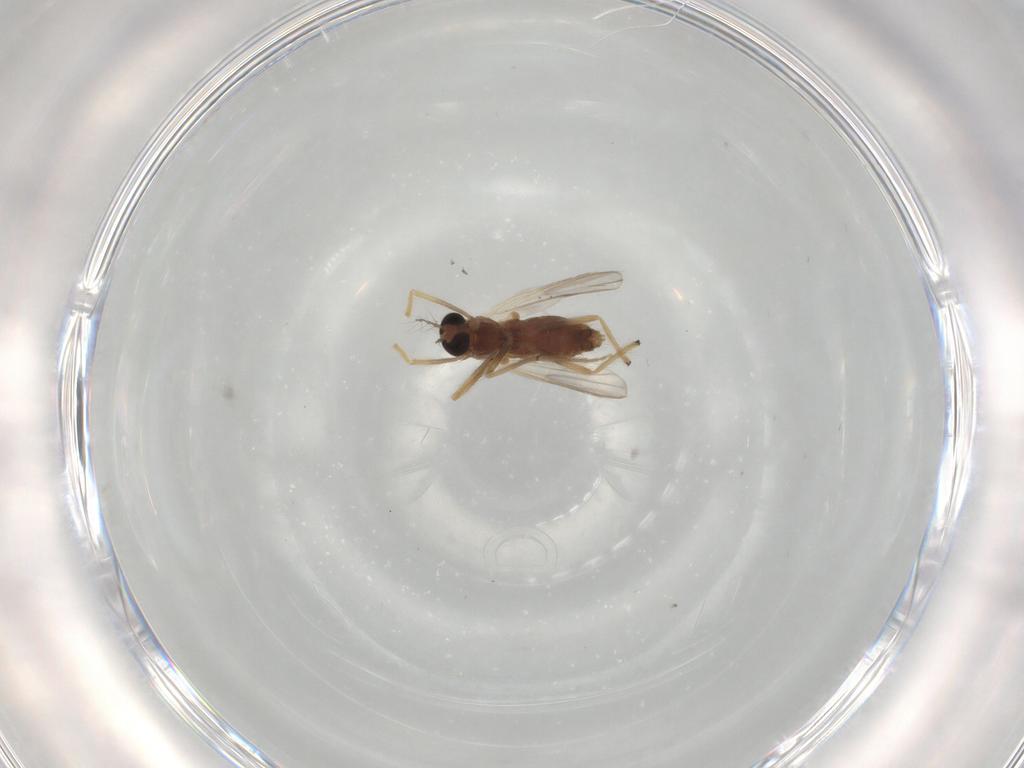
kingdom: Animalia
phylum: Arthropoda
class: Insecta
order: Diptera
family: Chironomidae
